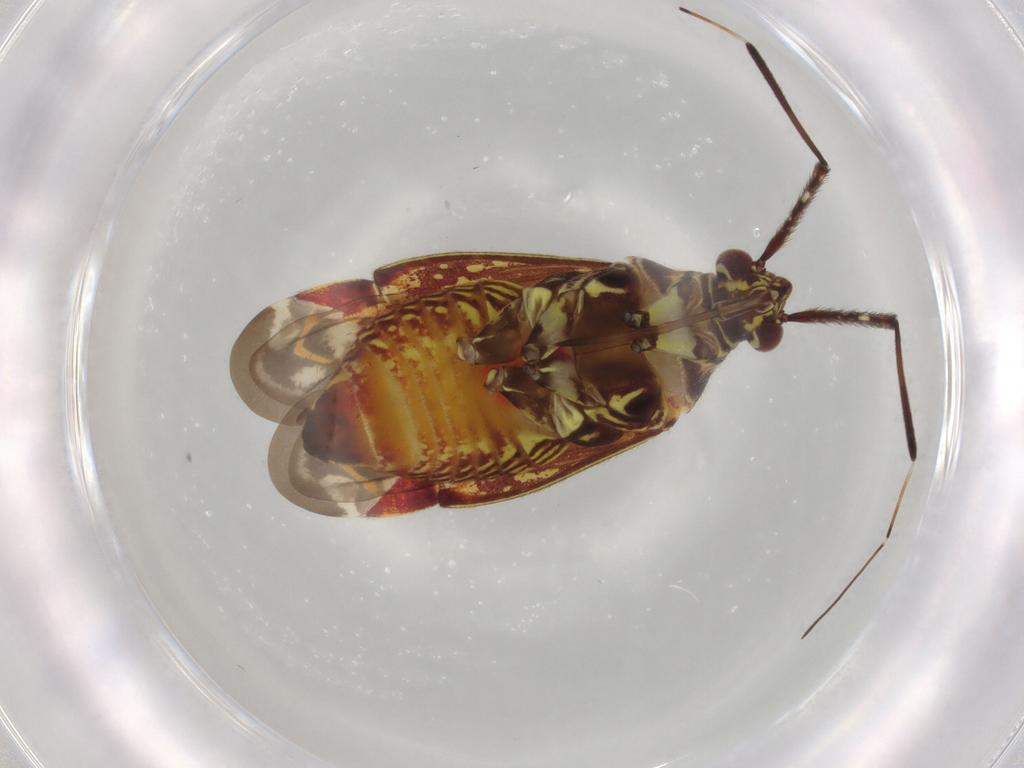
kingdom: Animalia
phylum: Arthropoda
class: Insecta
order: Hemiptera
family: Miridae
